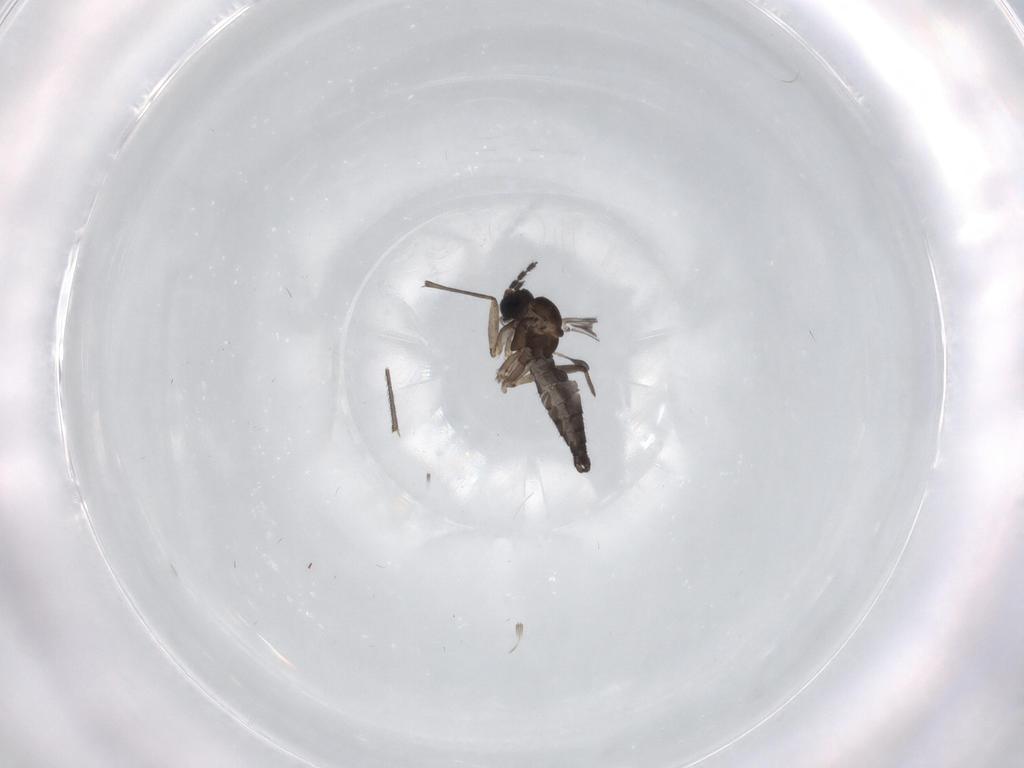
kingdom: Animalia
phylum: Arthropoda
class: Insecta
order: Diptera
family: Sciaridae
